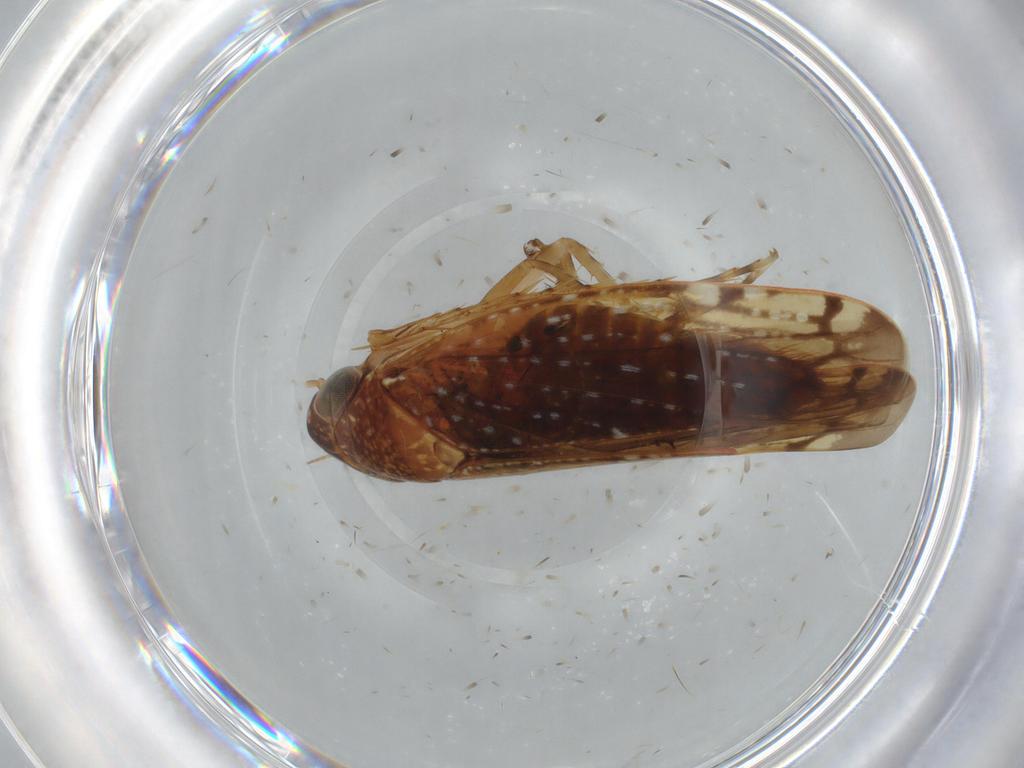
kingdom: Animalia
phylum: Arthropoda
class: Insecta
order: Hemiptera
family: Cicadellidae
